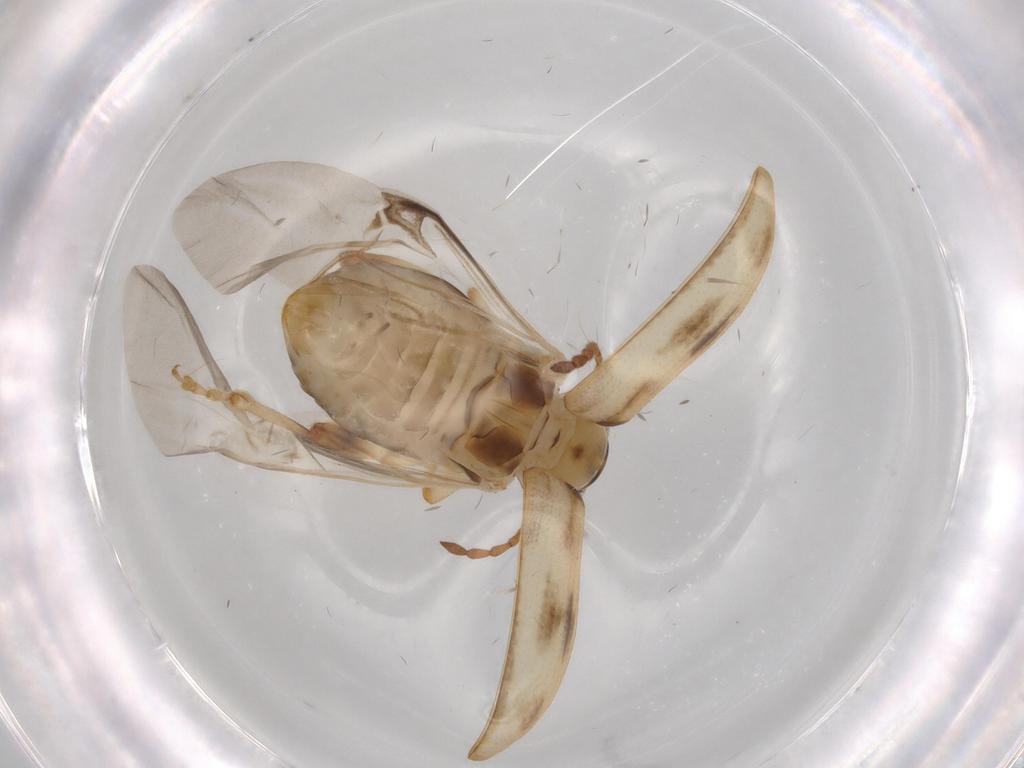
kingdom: Animalia
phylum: Arthropoda
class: Insecta
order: Coleoptera
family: Chrysomelidae
